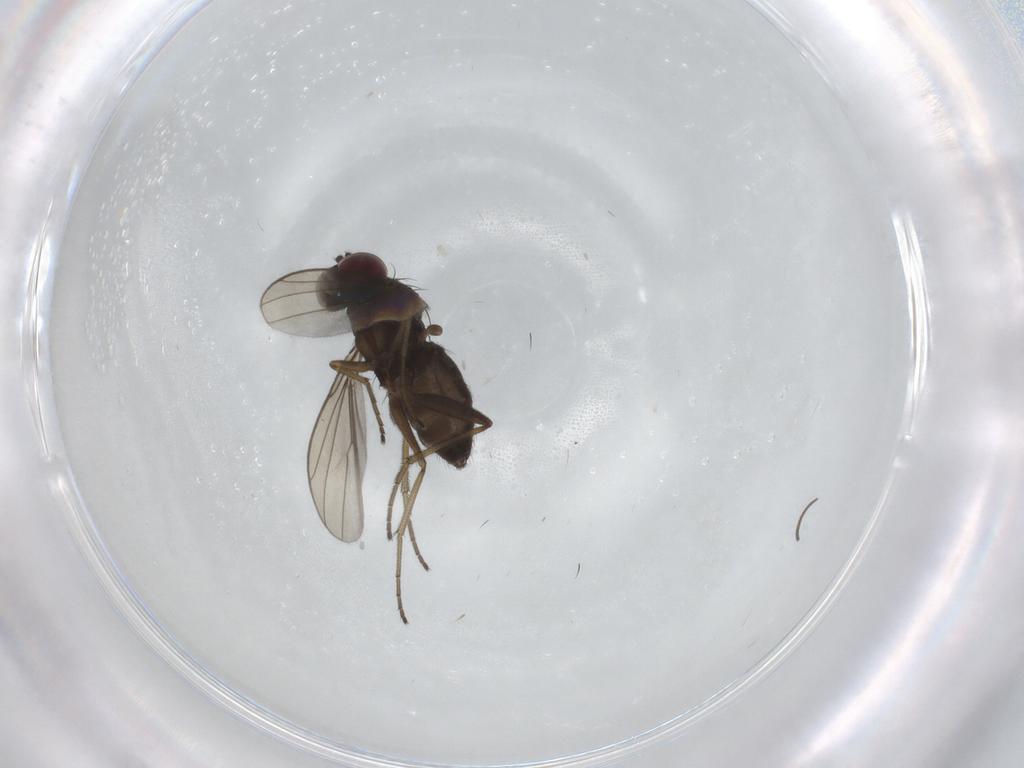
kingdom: Animalia
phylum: Arthropoda
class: Insecta
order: Diptera
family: Dolichopodidae
